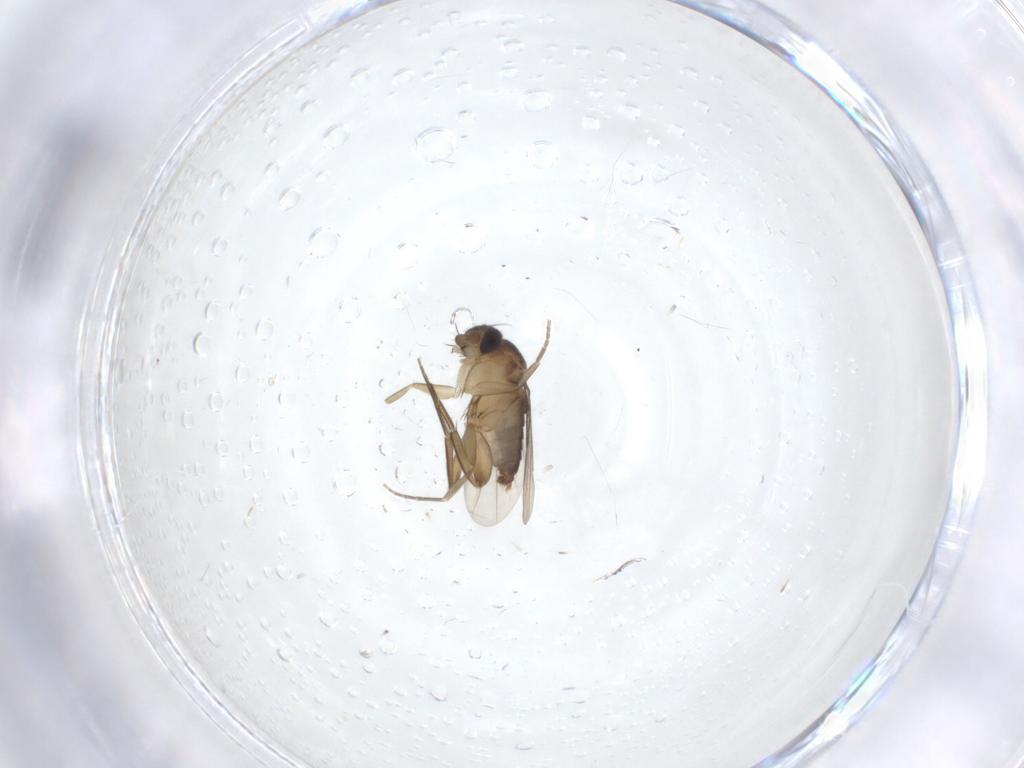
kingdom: Animalia
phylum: Arthropoda
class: Insecta
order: Diptera
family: Phoridae
